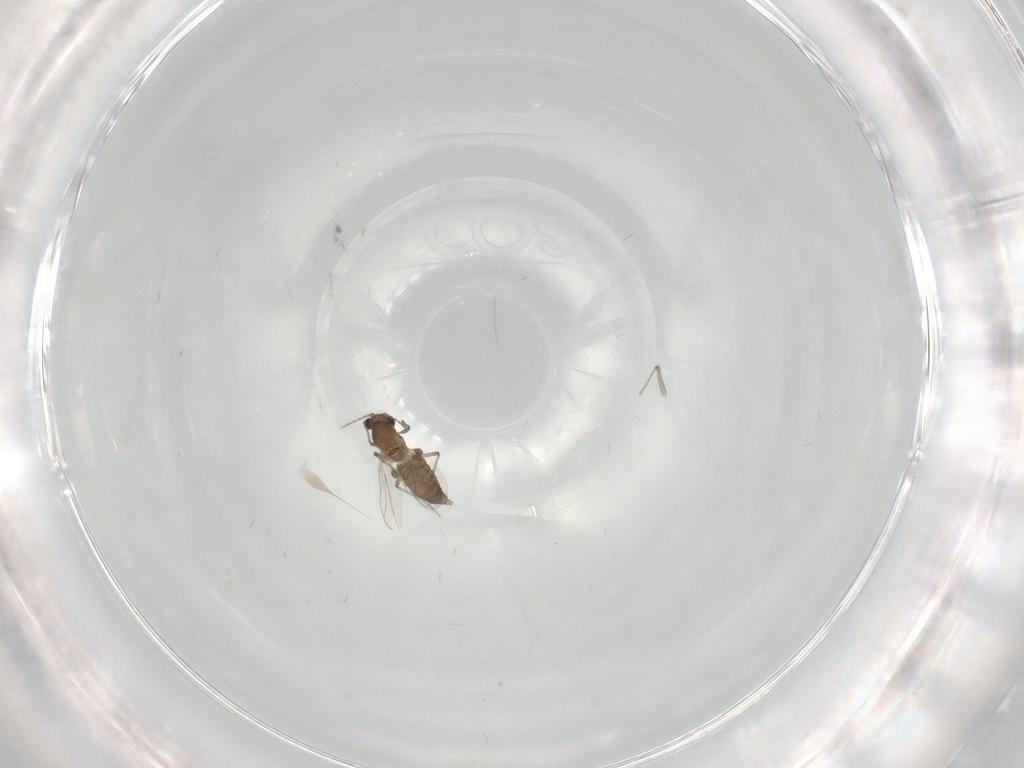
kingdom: Animalia
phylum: Arthropoda
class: Insecta
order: Diptera
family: Chironomidae
